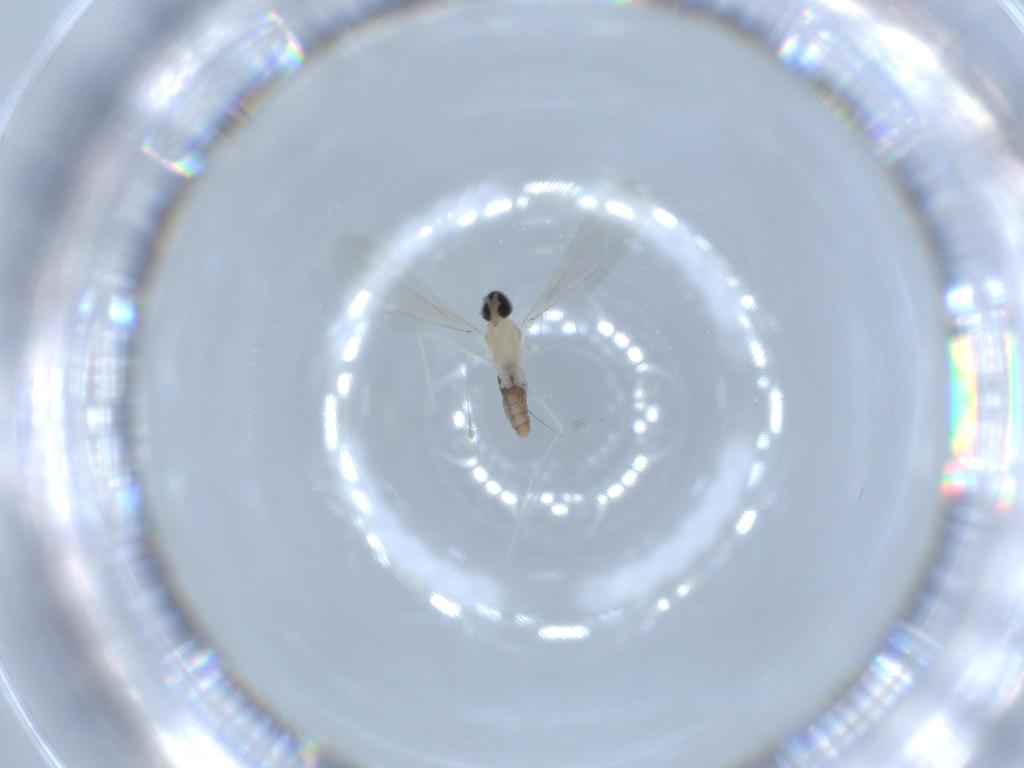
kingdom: Animalia
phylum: Arthropoda
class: Insecta
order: Diptera
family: Cecidomyiidae
